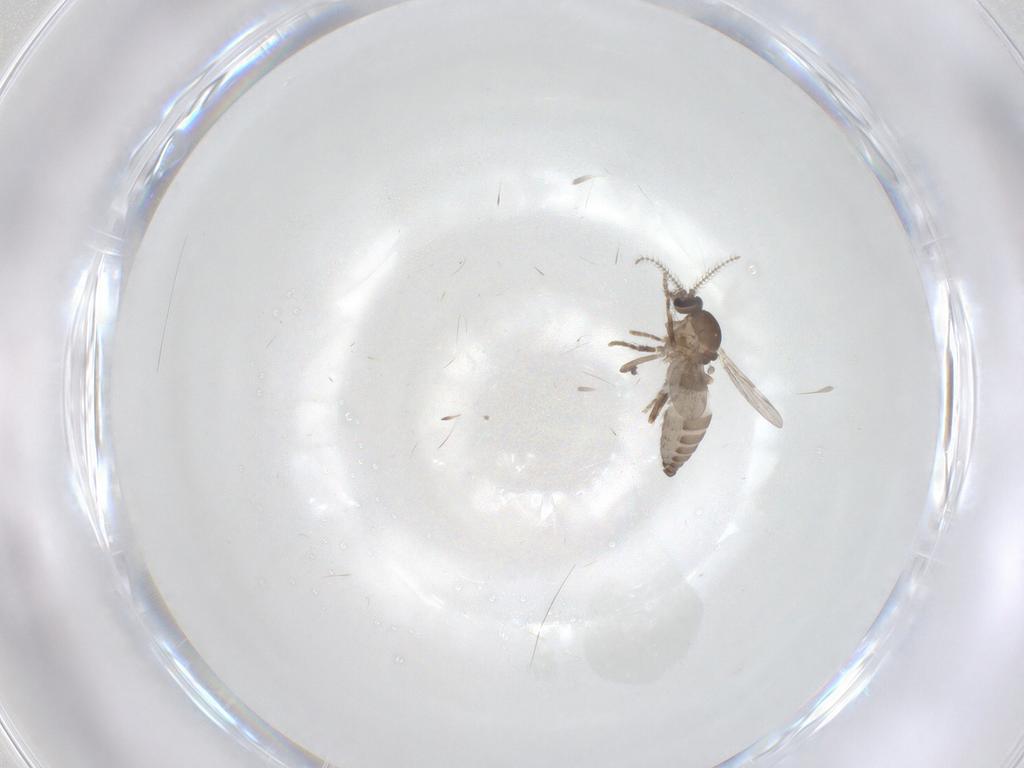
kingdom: Animalia
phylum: Arthropoda
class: Insecta
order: Diptera
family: Ceratopogonidae
